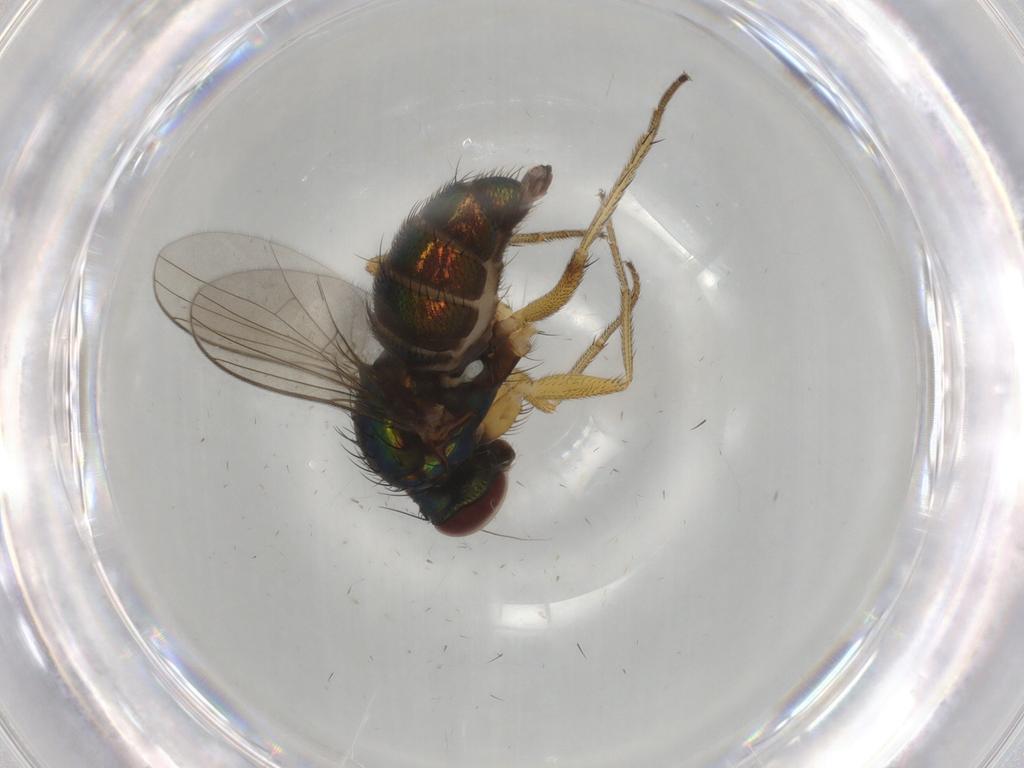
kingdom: Animalia
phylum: Arthropoda
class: Insecta
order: Diptera
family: Dolichopodidae
